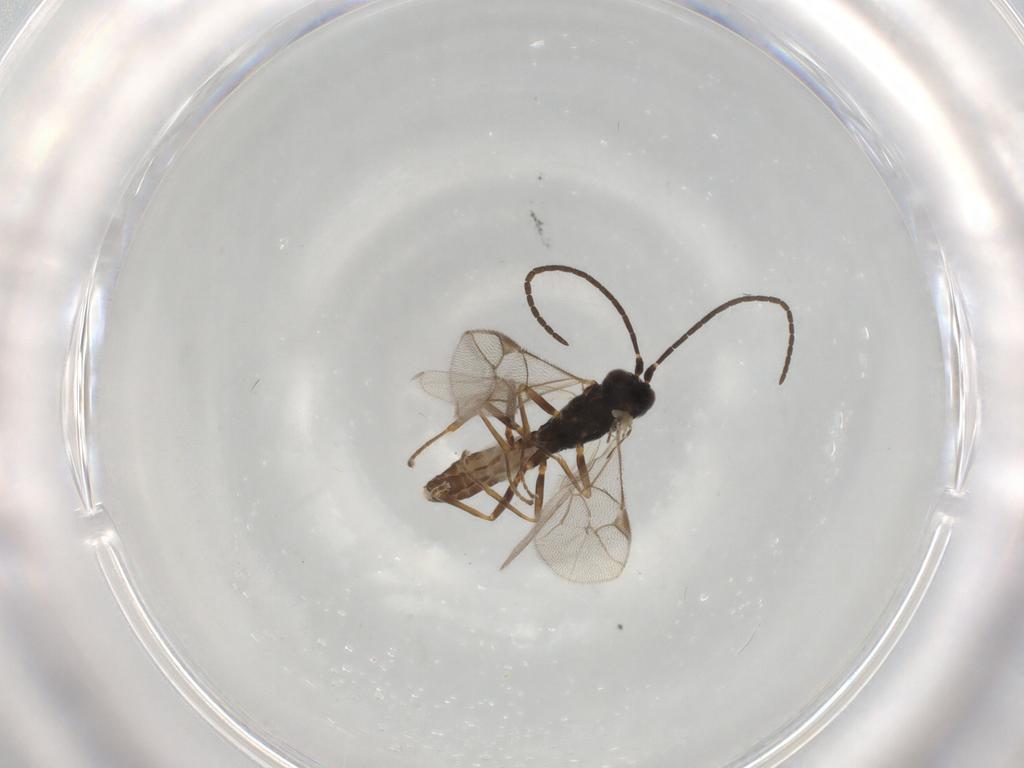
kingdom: Animalia
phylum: Arthropoda
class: Insecta
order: Hymenoptera
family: Ichneumonidae
